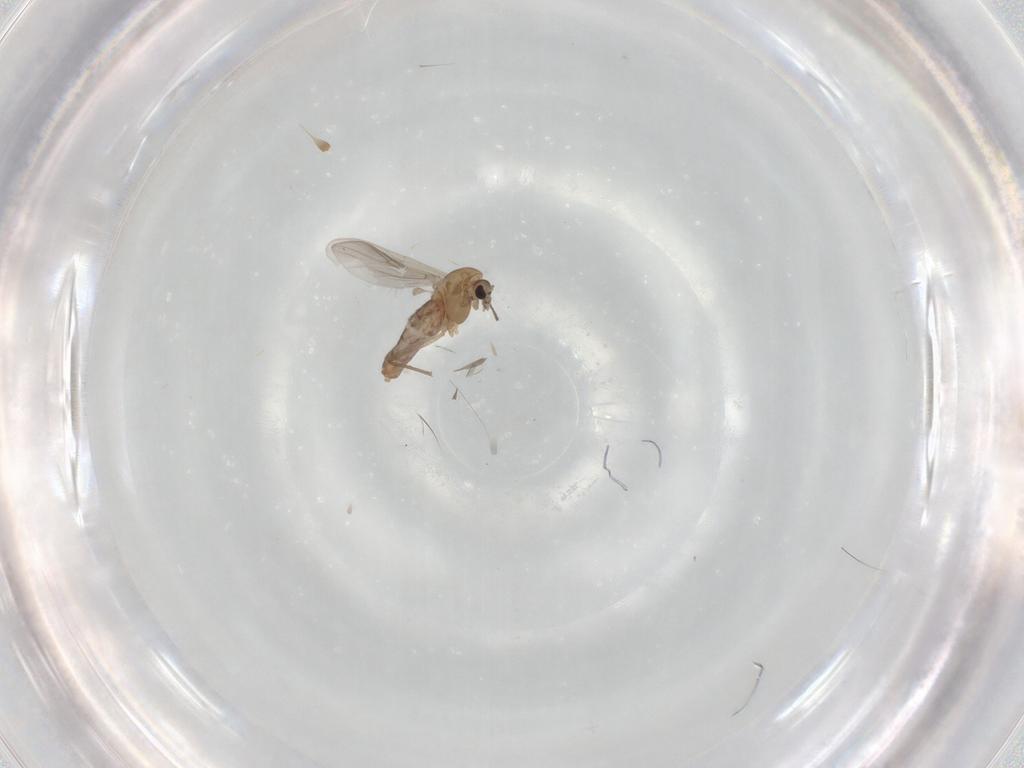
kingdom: Animalia
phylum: Arthropoda
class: Insecta
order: Diptera
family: Chironomidae
